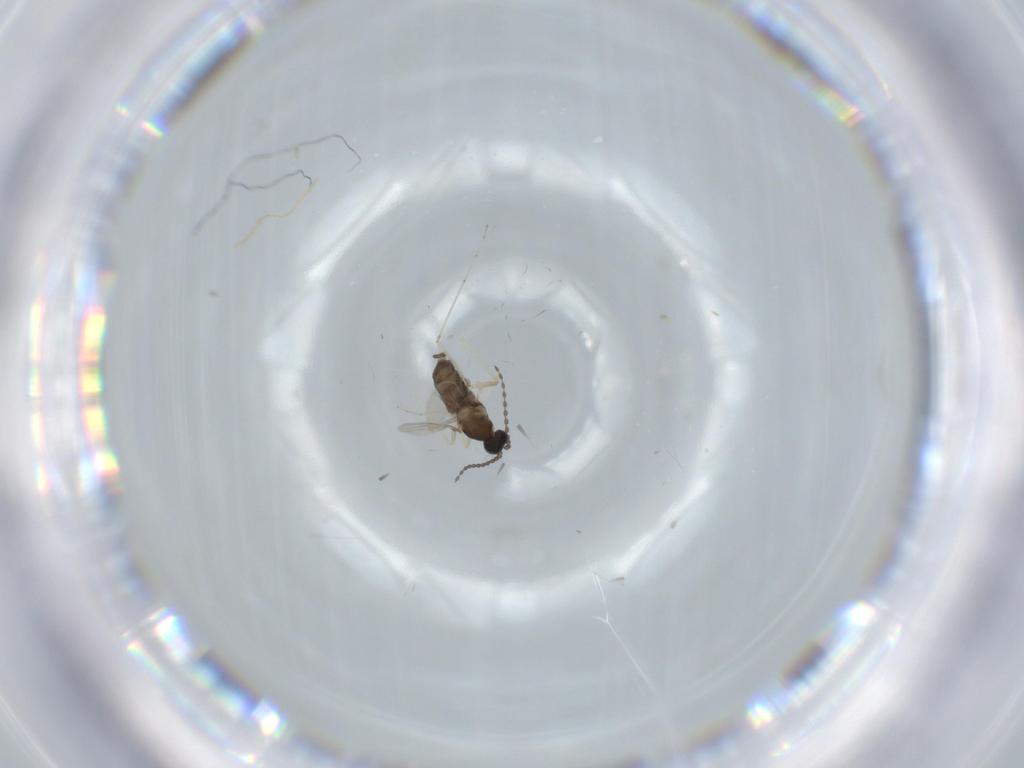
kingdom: Animalia
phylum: Arthropoda
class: Insecta
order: Diptera
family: Cecidomyiidae
